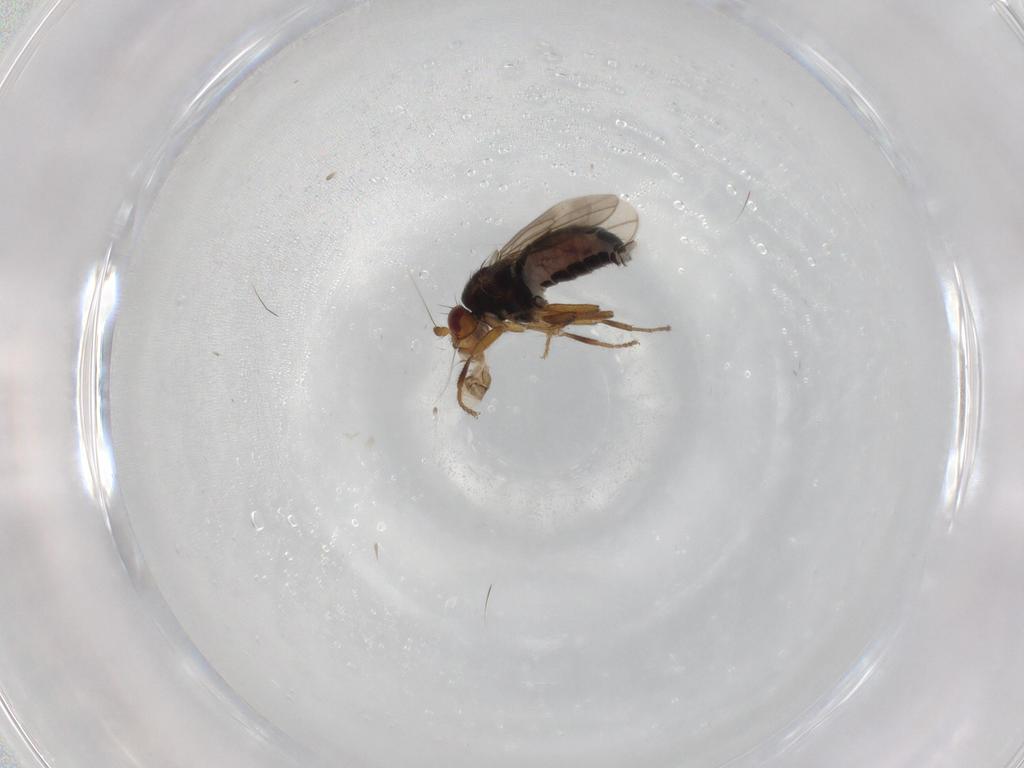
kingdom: Animalia
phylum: Arthropoda
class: Insecta
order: Diptera
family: Sphaeroceridae
